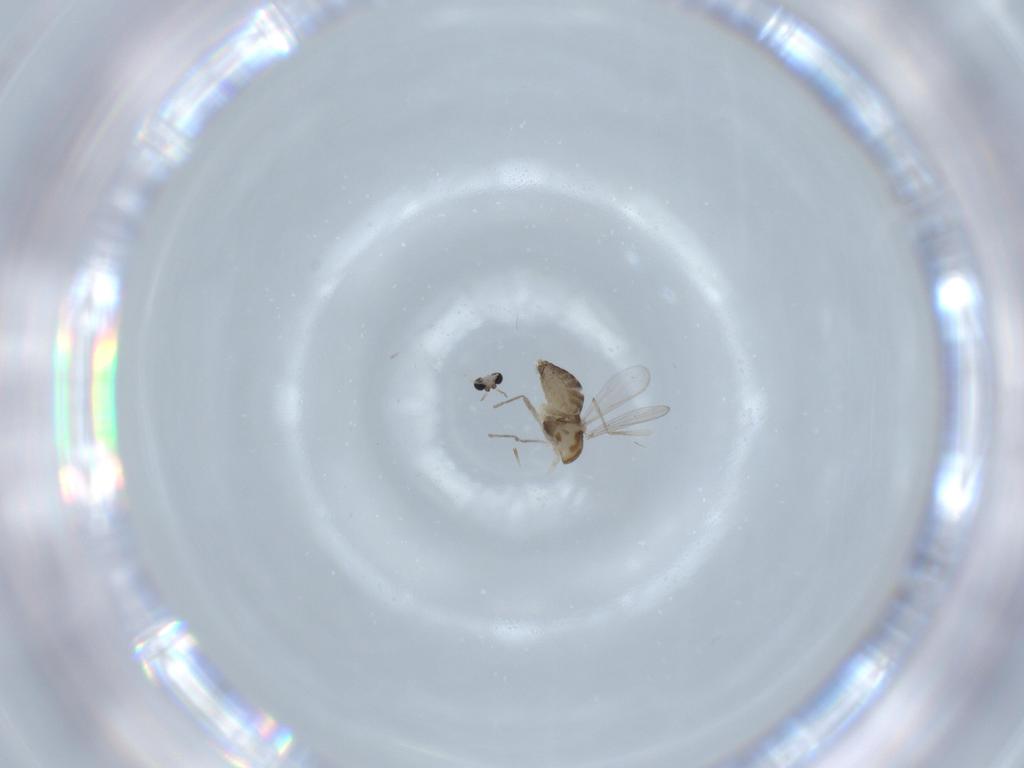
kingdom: Animalia
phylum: Arthropoda
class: Insecta
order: Diptera
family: Chironomidae
